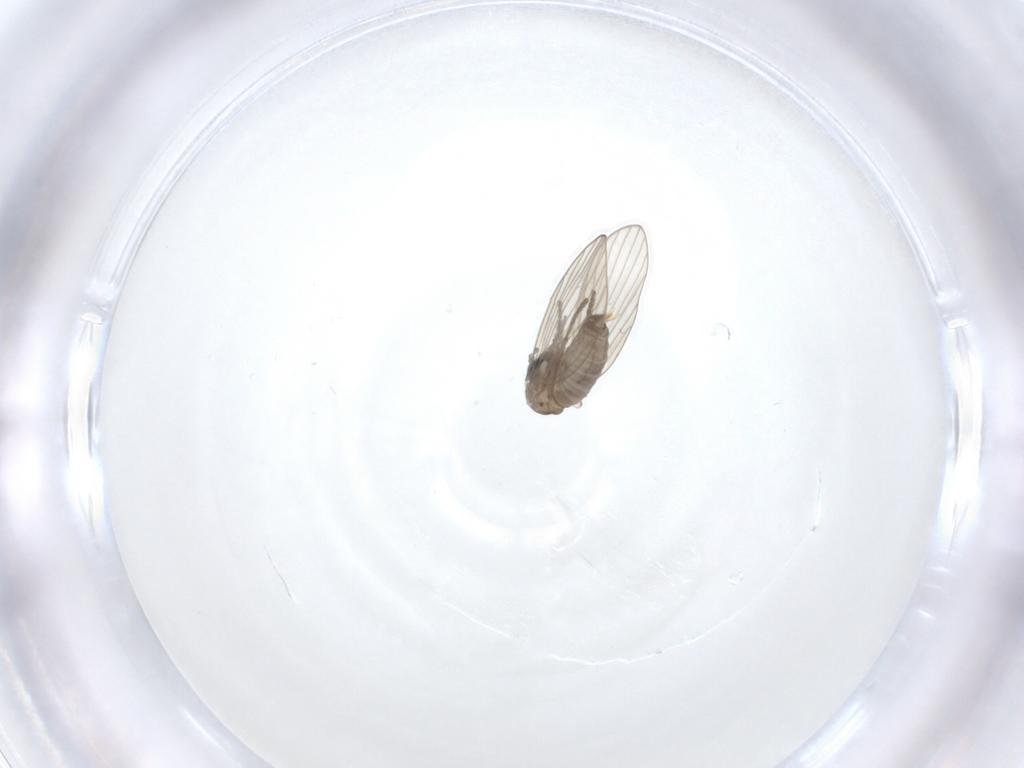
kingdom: Animalia
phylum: Arthropoda
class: Insecta
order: Diptera
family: Psychodidae
